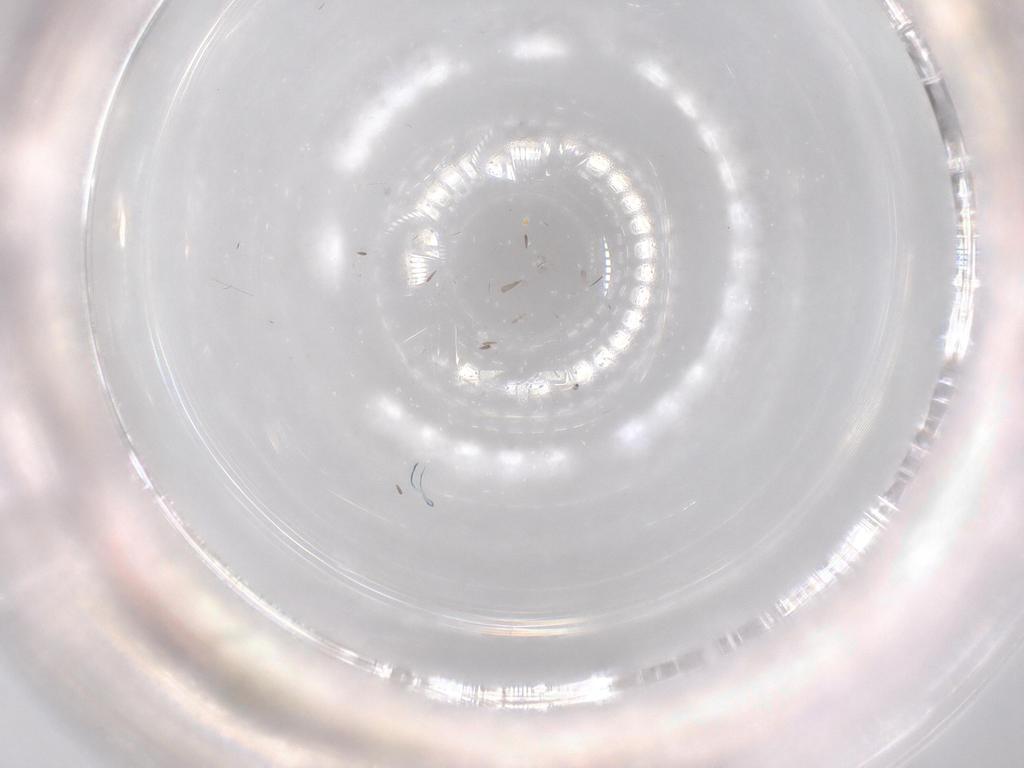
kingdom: Animalia
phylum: Arthropoda
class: Insecta
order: Coleoptera
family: Staphylinidae
